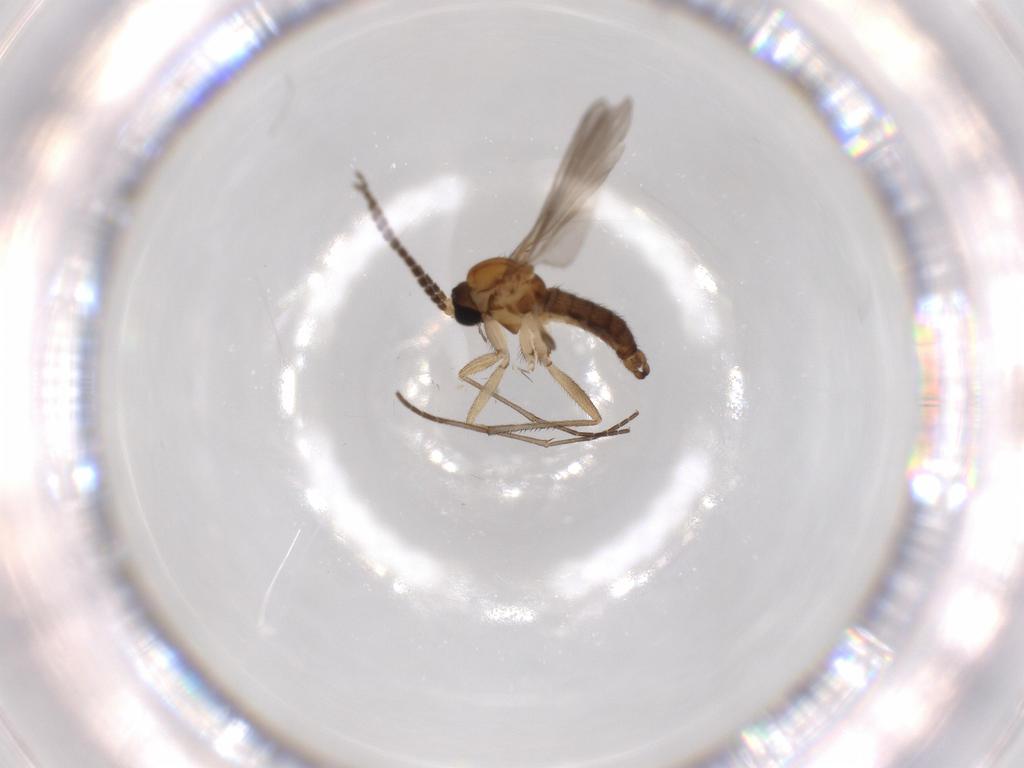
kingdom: Animalia
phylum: Arthropoda
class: Insecta
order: Diptera
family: Sciaridae
